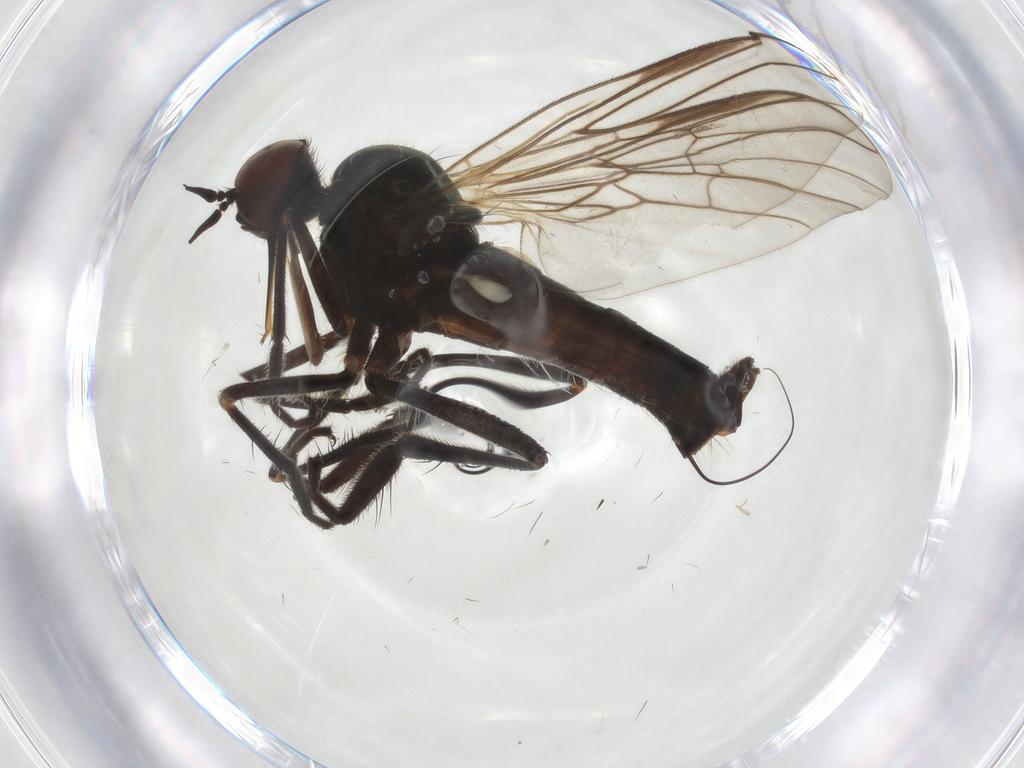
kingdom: Animalia
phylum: Arthropoda
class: Insecta
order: Diptera
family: Empididae
